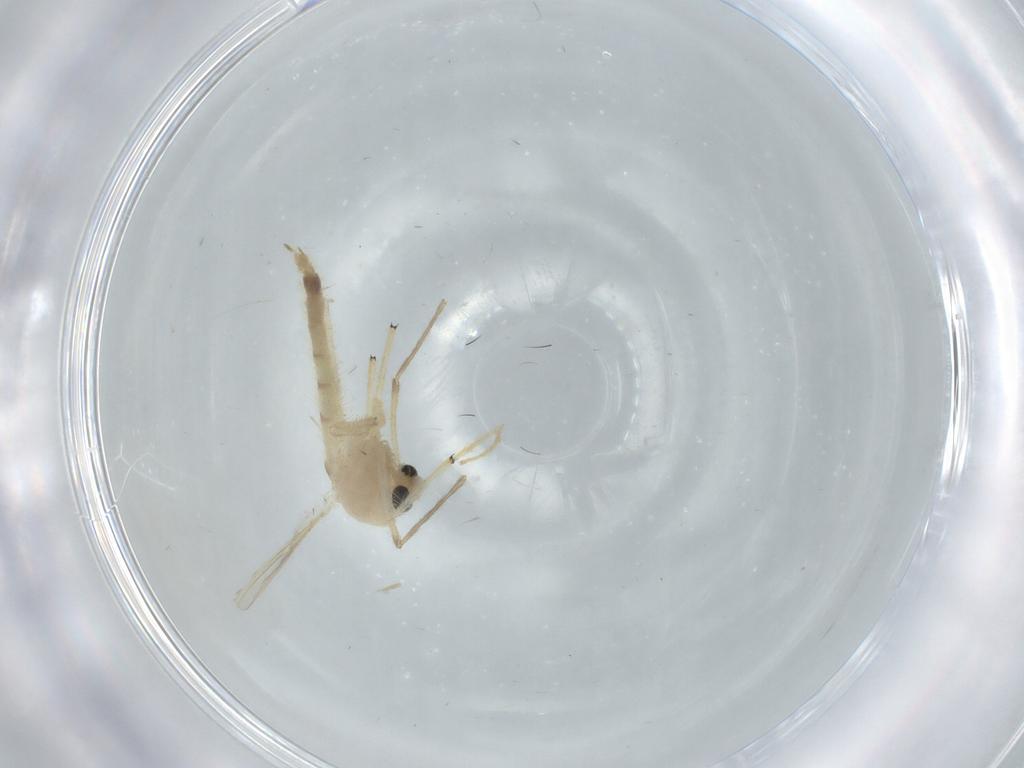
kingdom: Animalia
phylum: Arthropoda
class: Insecta
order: Diptera
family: Chironomidae
